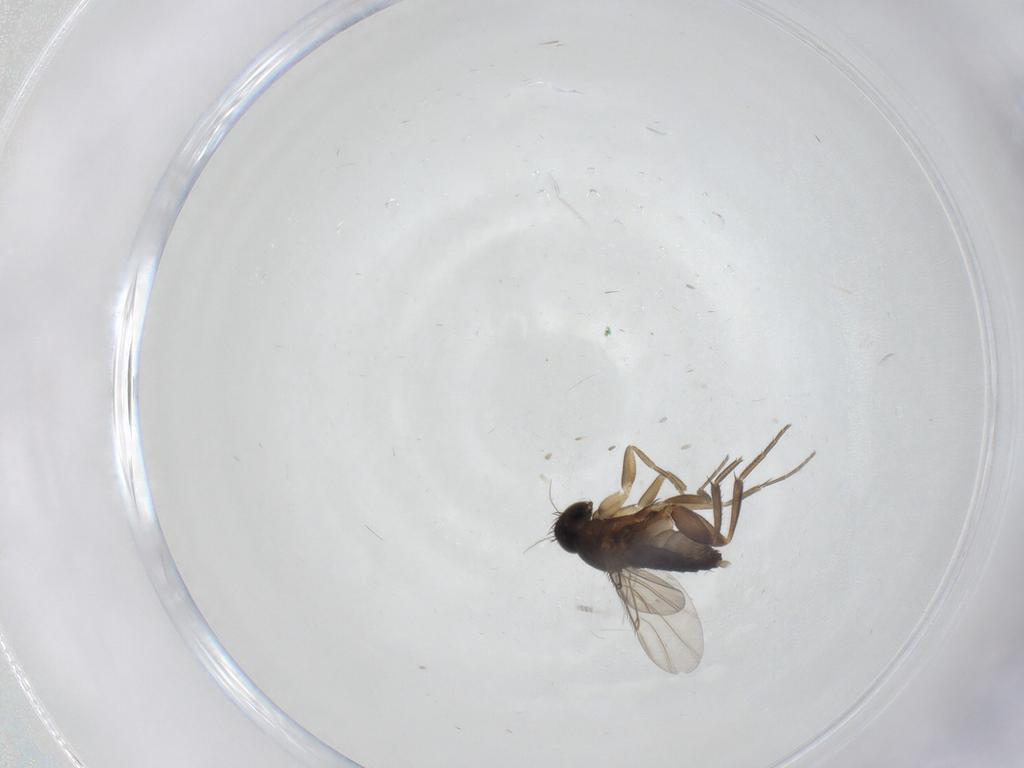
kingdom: Animalia
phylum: Arthropoda
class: Insecta
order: Diptera
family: Phoridae
